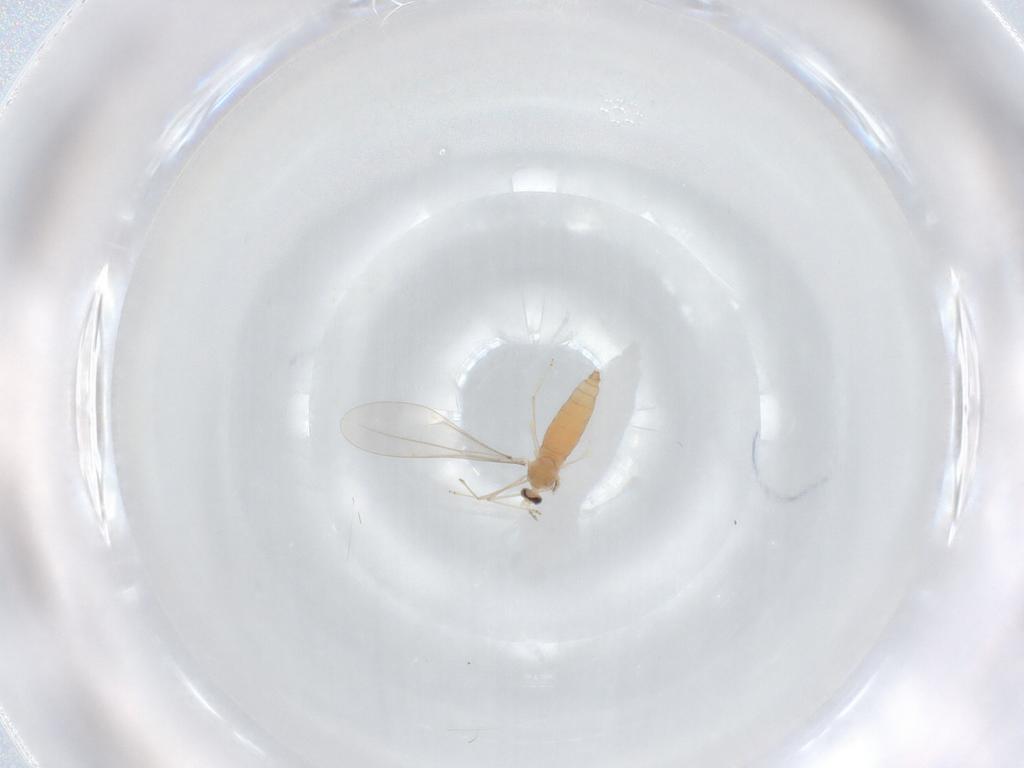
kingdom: Animalia
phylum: Arthropoda
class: Insecta
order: Diptera
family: Cecidomyiidae
